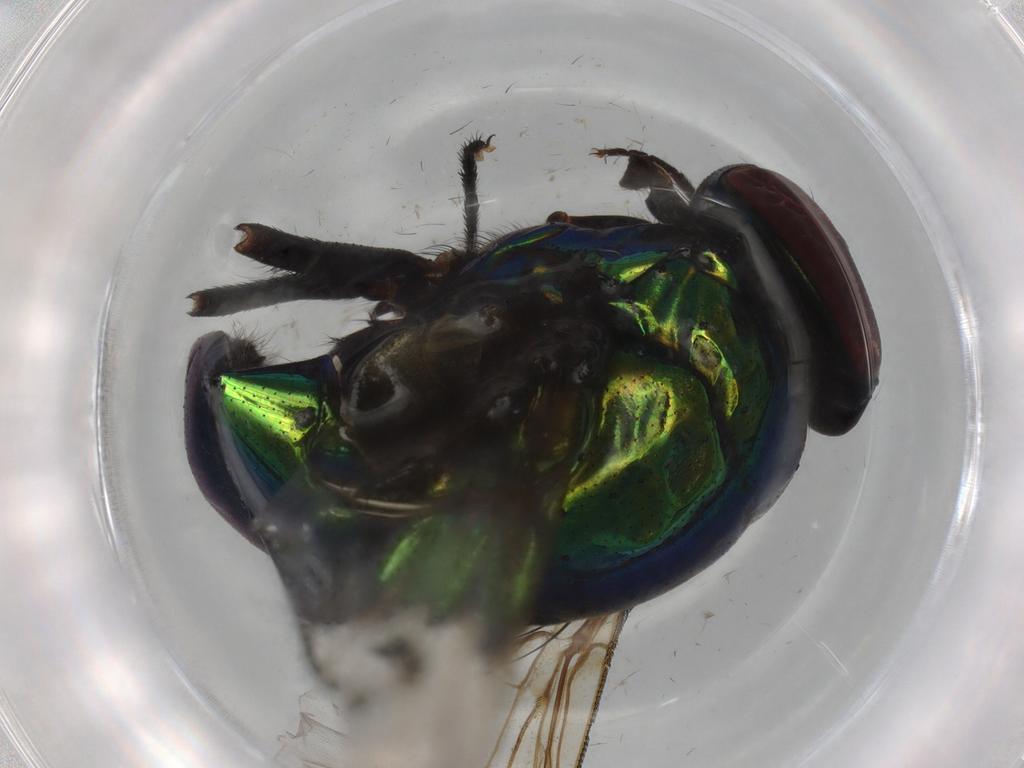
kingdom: Animalia
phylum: Arthropoda
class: Insecta
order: Diptera
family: Muscidae
